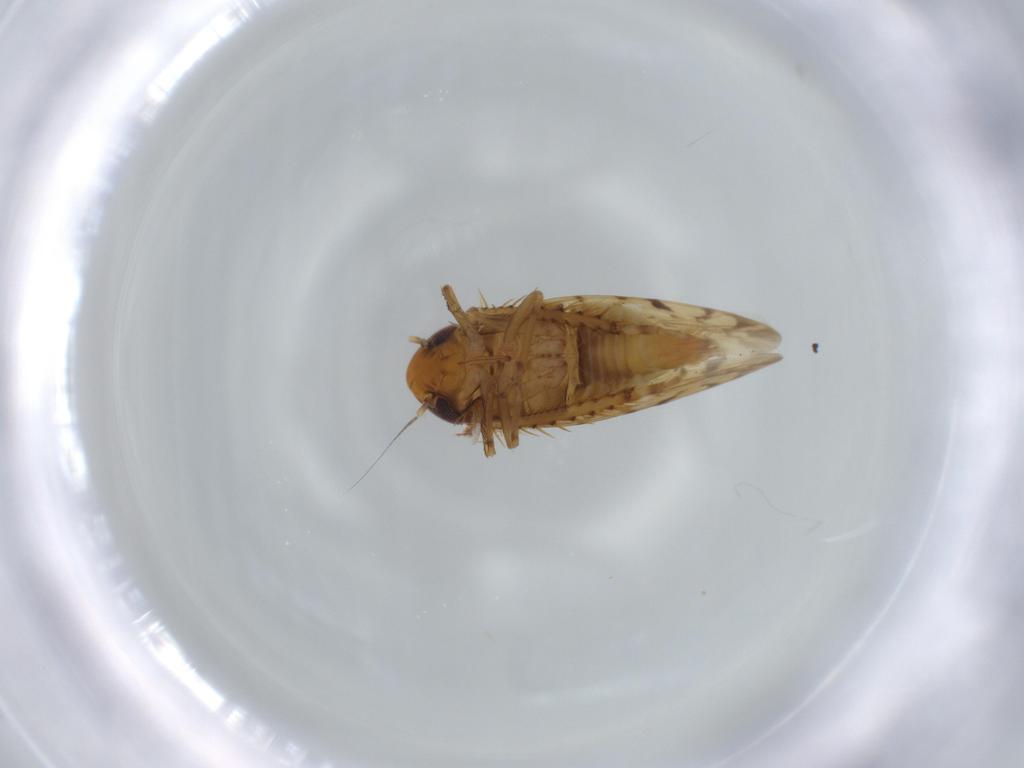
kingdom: Animalia
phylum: Arthropoda
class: Insecta
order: Hemiptera
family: Cicadellidae
